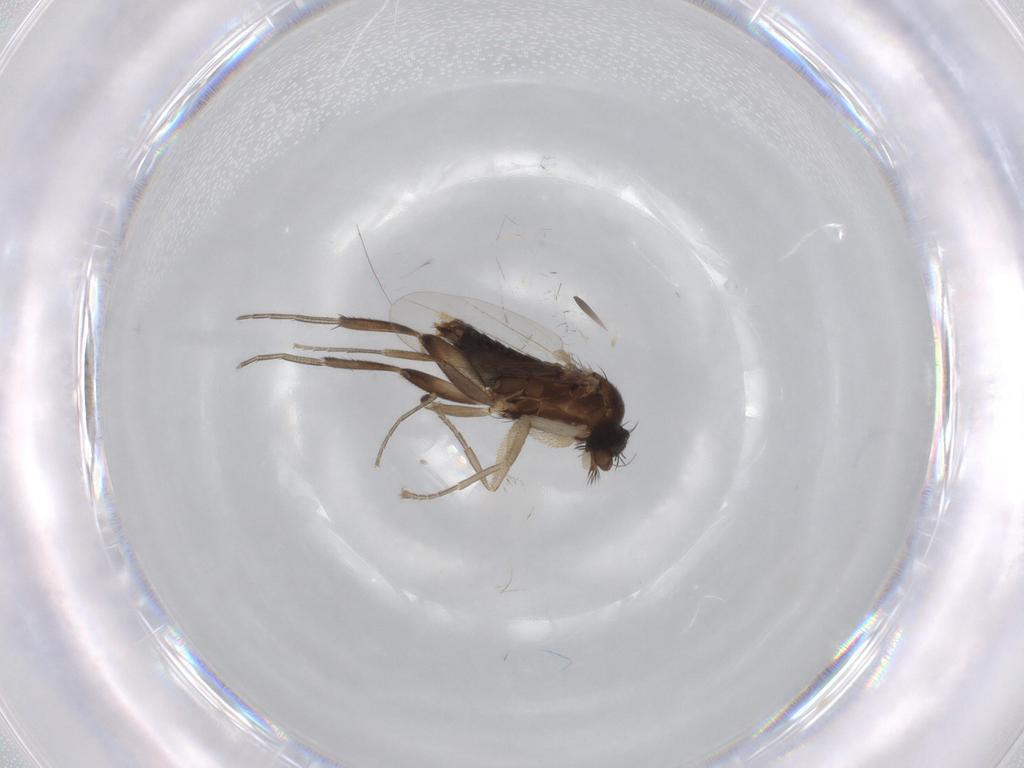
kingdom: Animalia
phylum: Arthropoda
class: Insecta
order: Diptera
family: Phoridae
